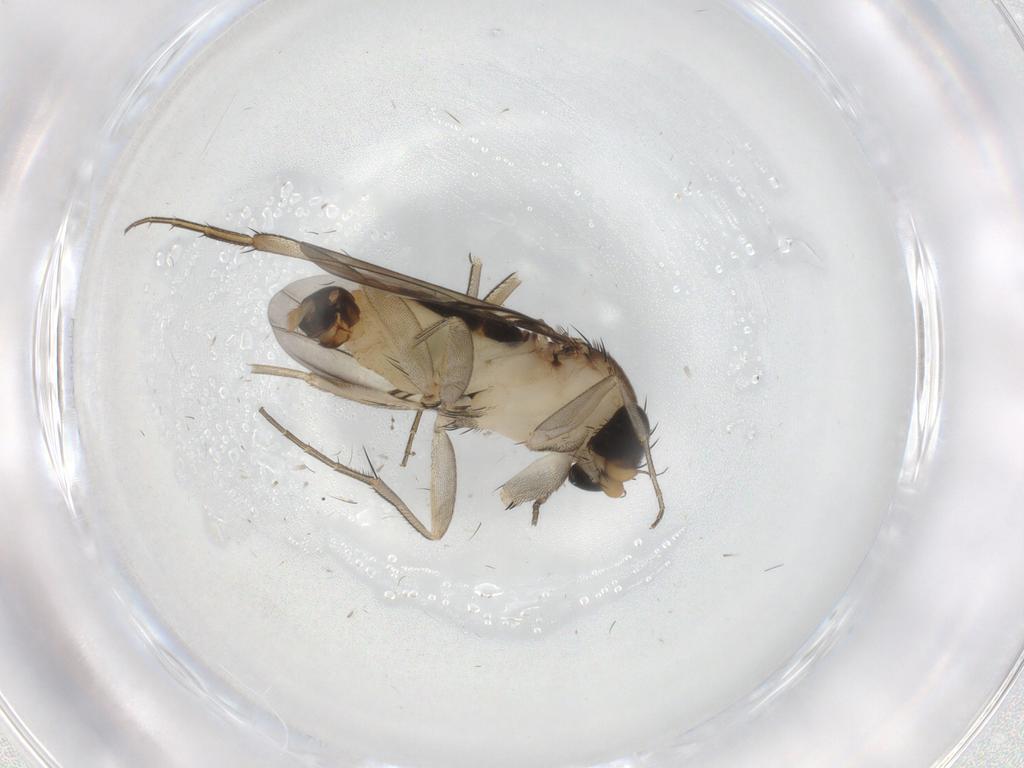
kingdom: Animalia
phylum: Arthropoda
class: Insecta
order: Diptera
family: Phoridae
